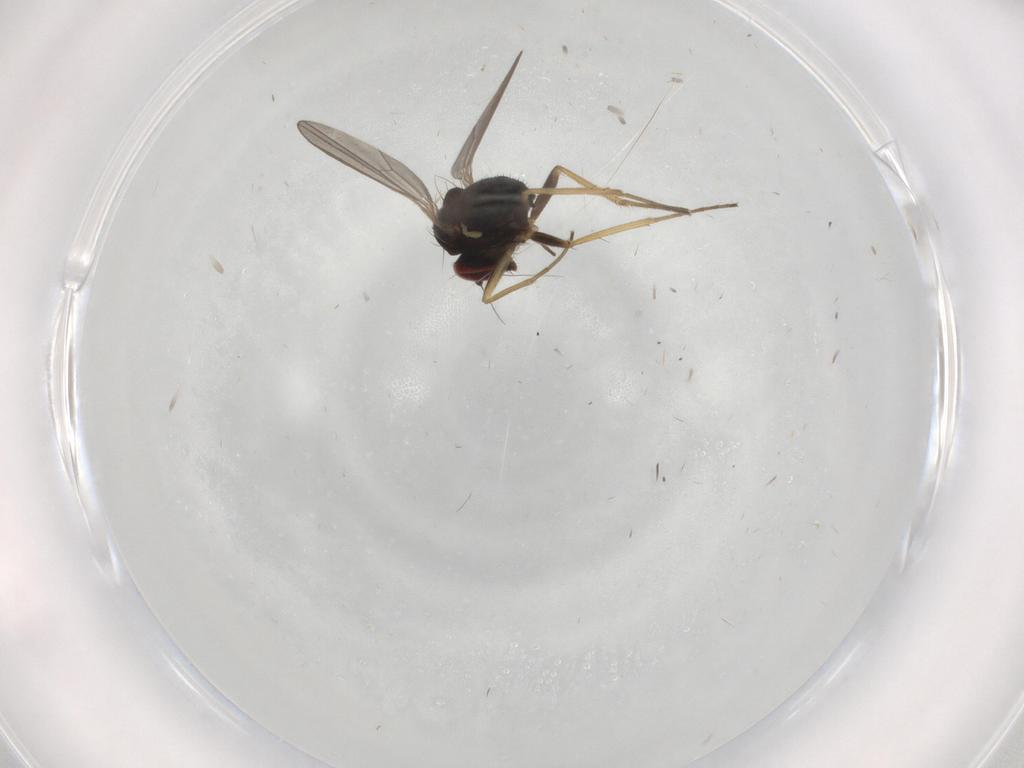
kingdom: Animalia
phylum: Arthropoda
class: Insecta
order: Diptera
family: Dolichopodidae
